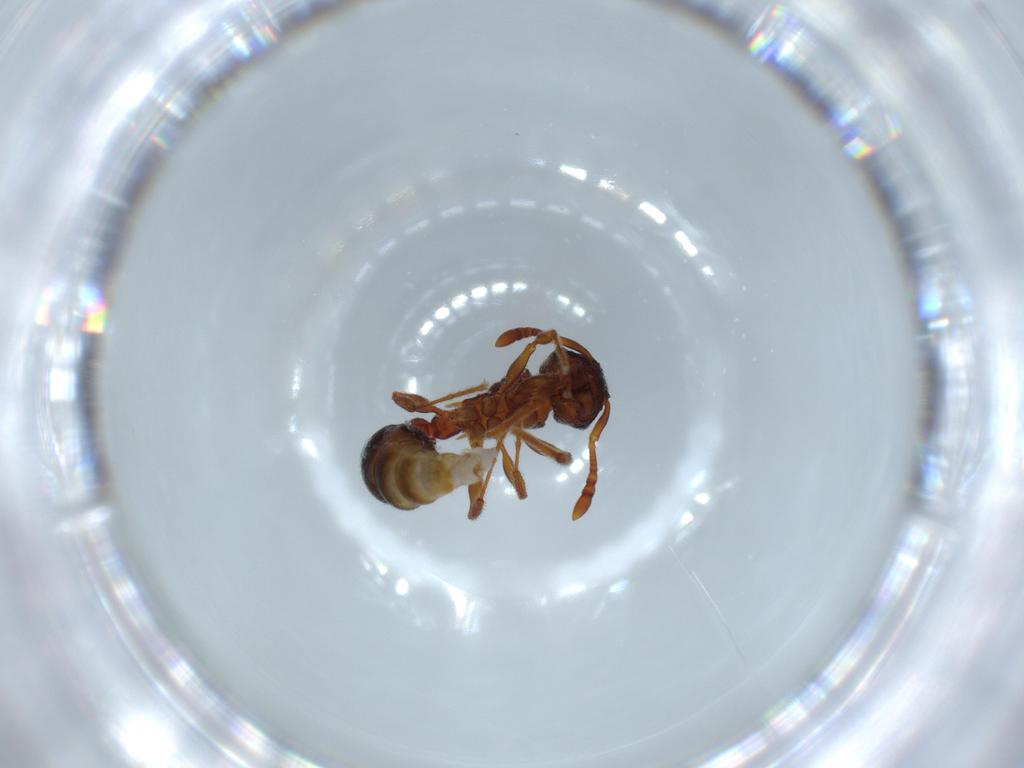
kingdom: Animalia
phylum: Arthropoda
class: Insecta
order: Hymenoptera
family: Formicidae
